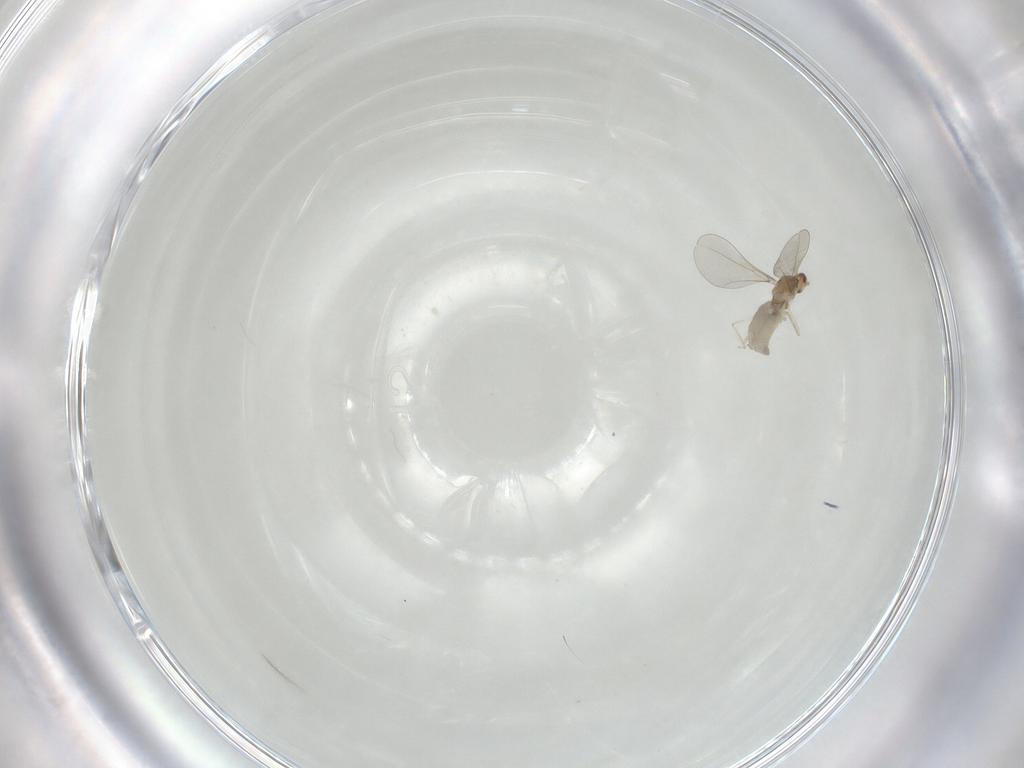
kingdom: Animalia
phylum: Arthropoda
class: Insecta
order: Diptera
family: Cecidomyiidae
